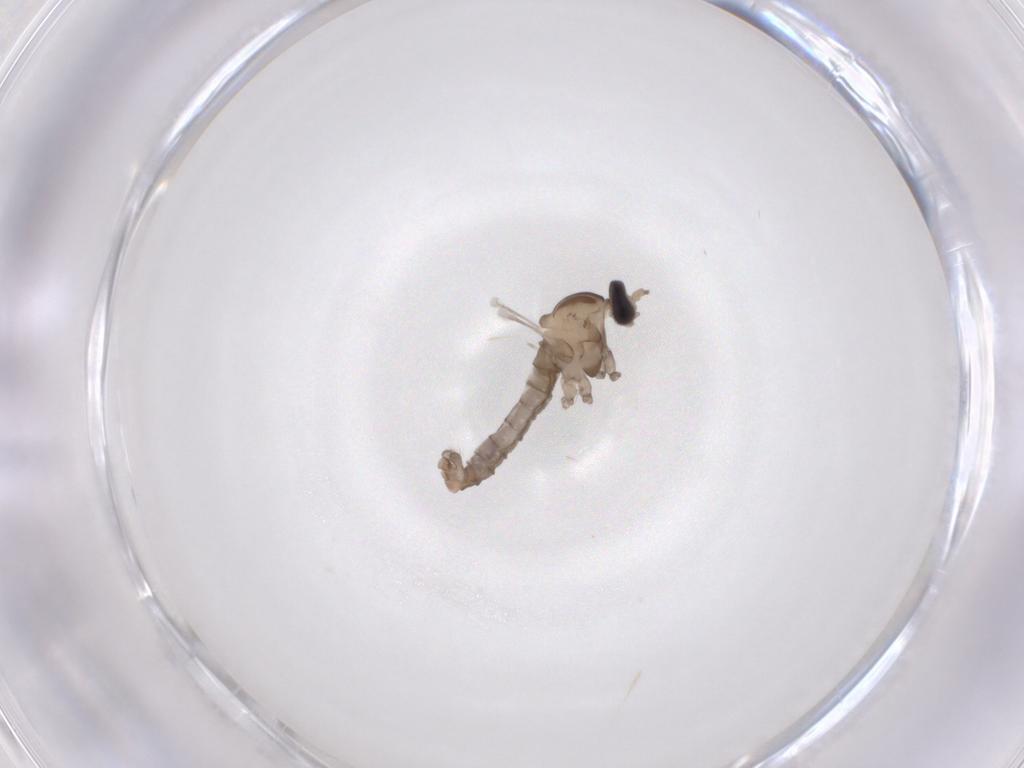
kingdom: Animalia
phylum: Arthropoda
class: Insecta
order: Diptera
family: Cecidomyiidae
